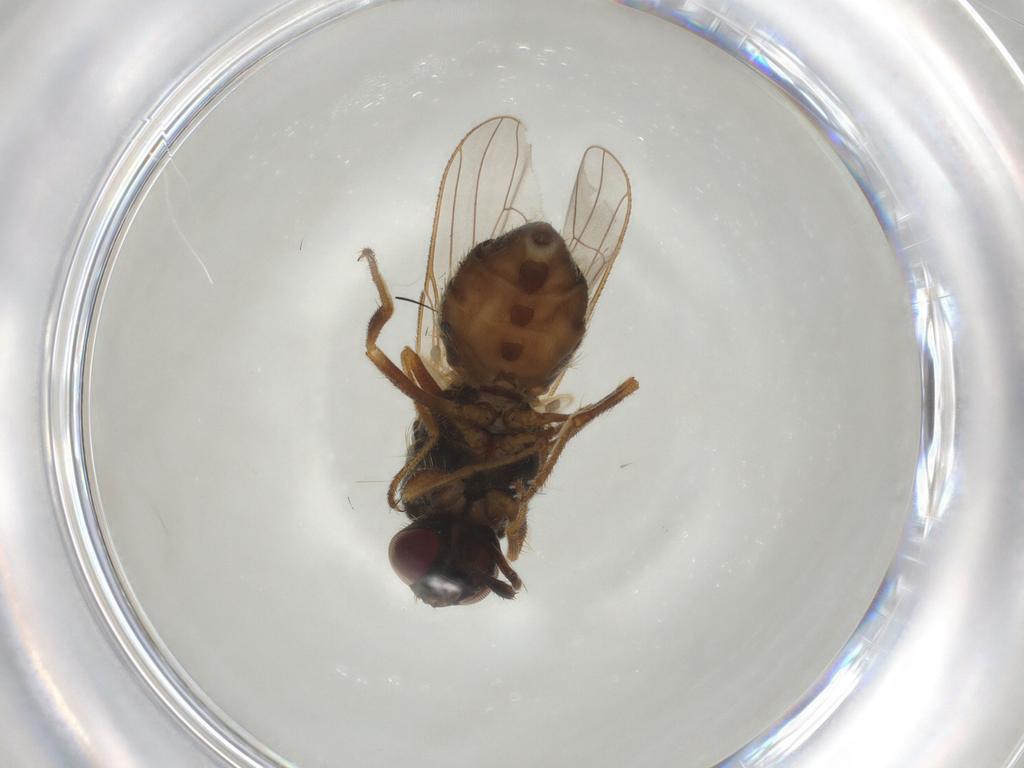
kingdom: Animalia
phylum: Arthropoda
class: Insecta
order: Diptera
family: Muscidae
